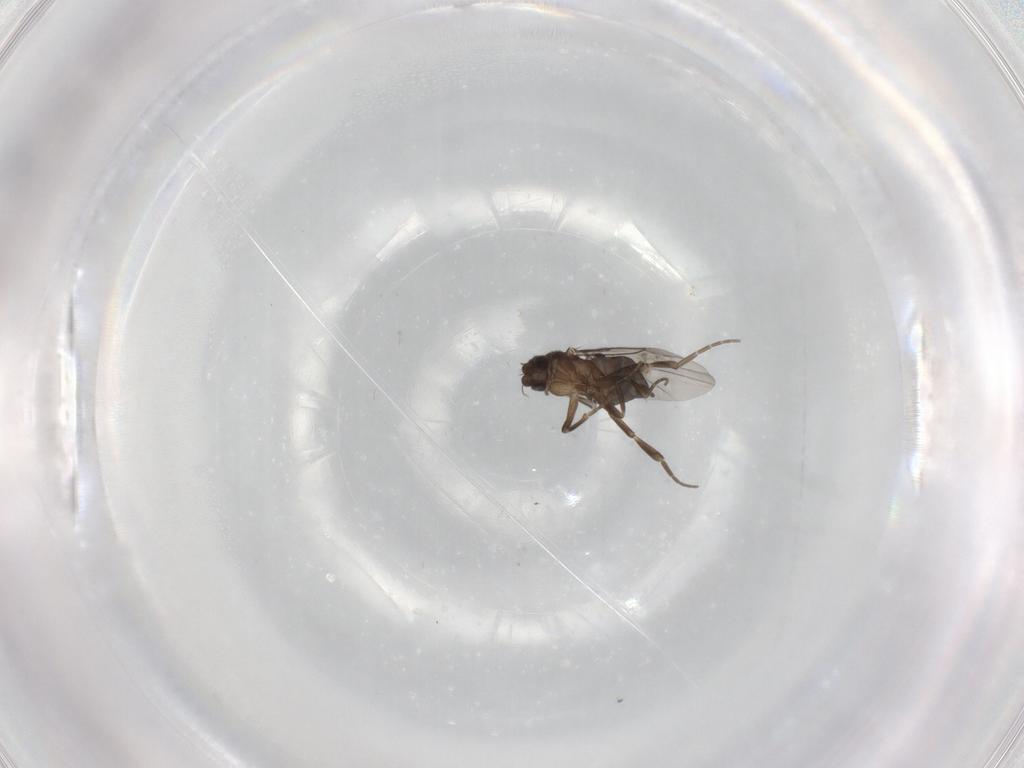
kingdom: Animalia
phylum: Arthropoda
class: Insecta
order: Diptera
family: Phoridae
